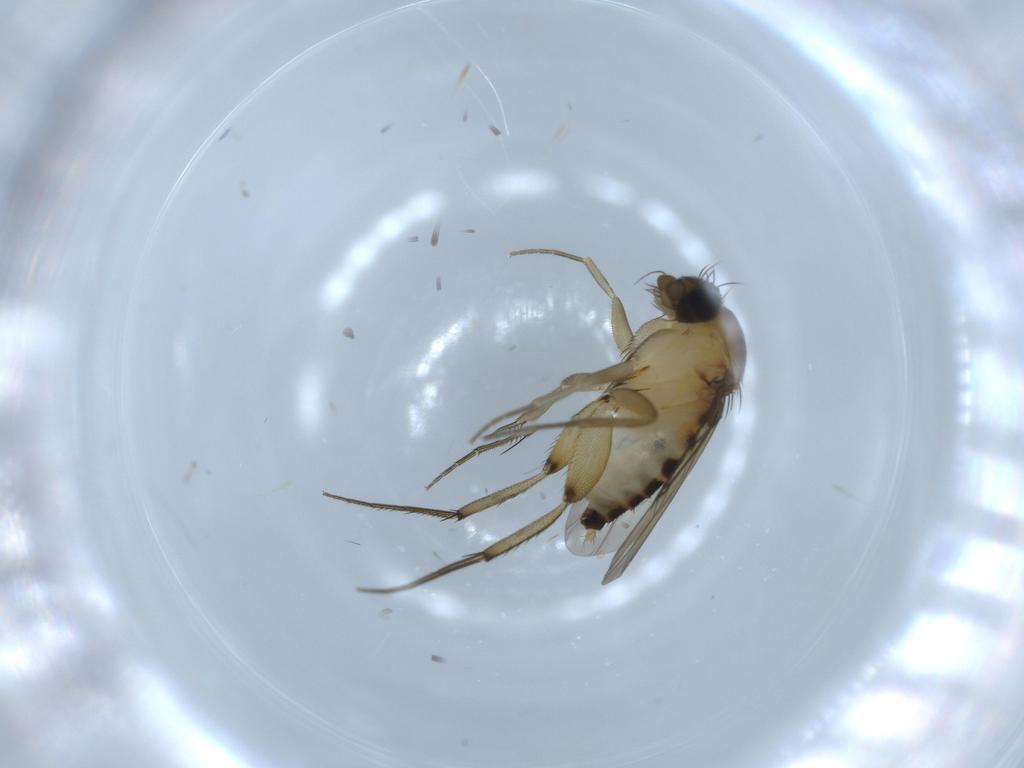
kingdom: Animalia
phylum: Arthropoda
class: Insecta
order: Diptera
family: Phoridae
